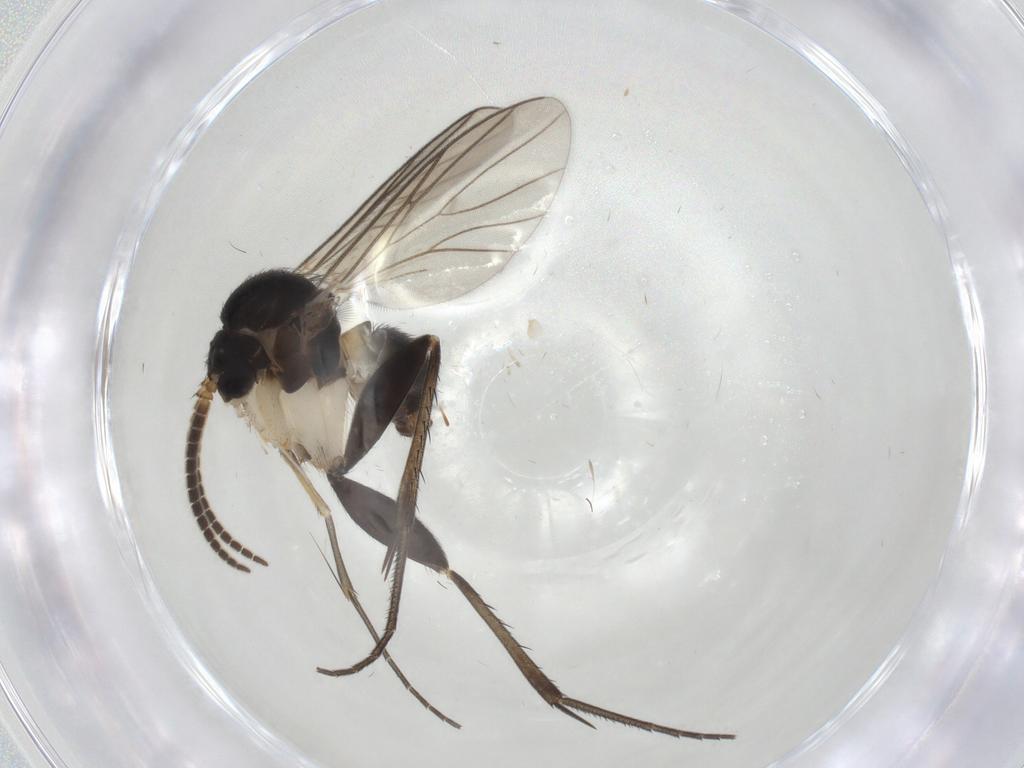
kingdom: Animalia
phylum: Arthropoda
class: Insecta
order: Diptera
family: Mycetophilidae
